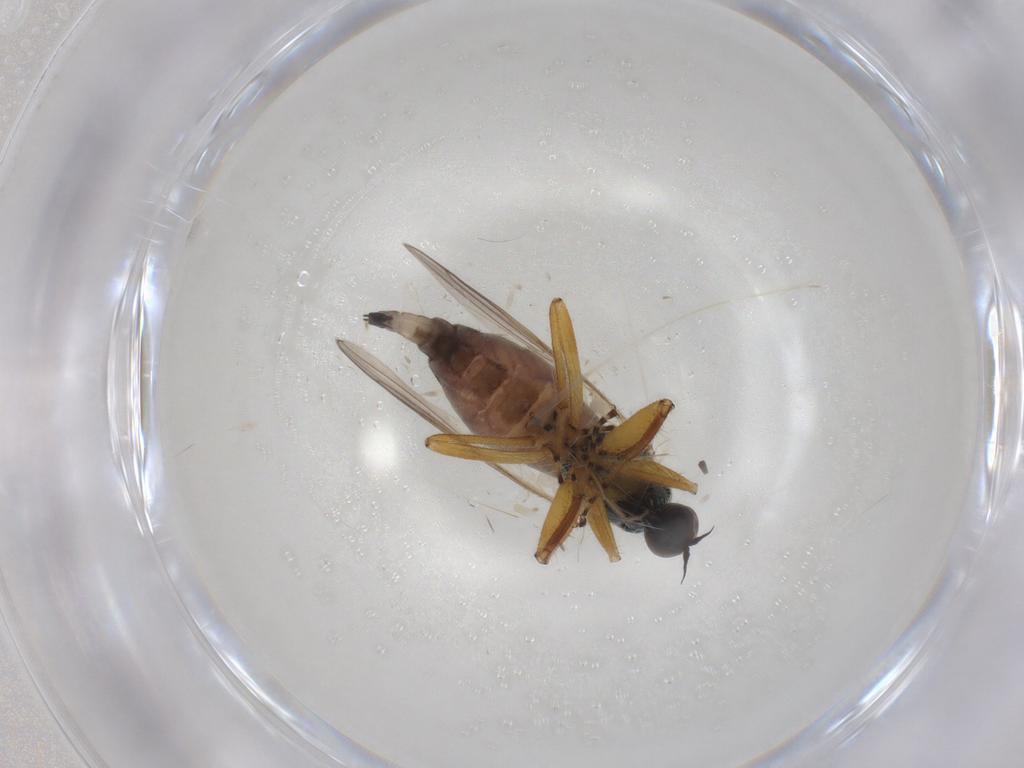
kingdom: Animalia
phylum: Arthropoda
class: Insecta
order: Diptera
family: Hybotidae
